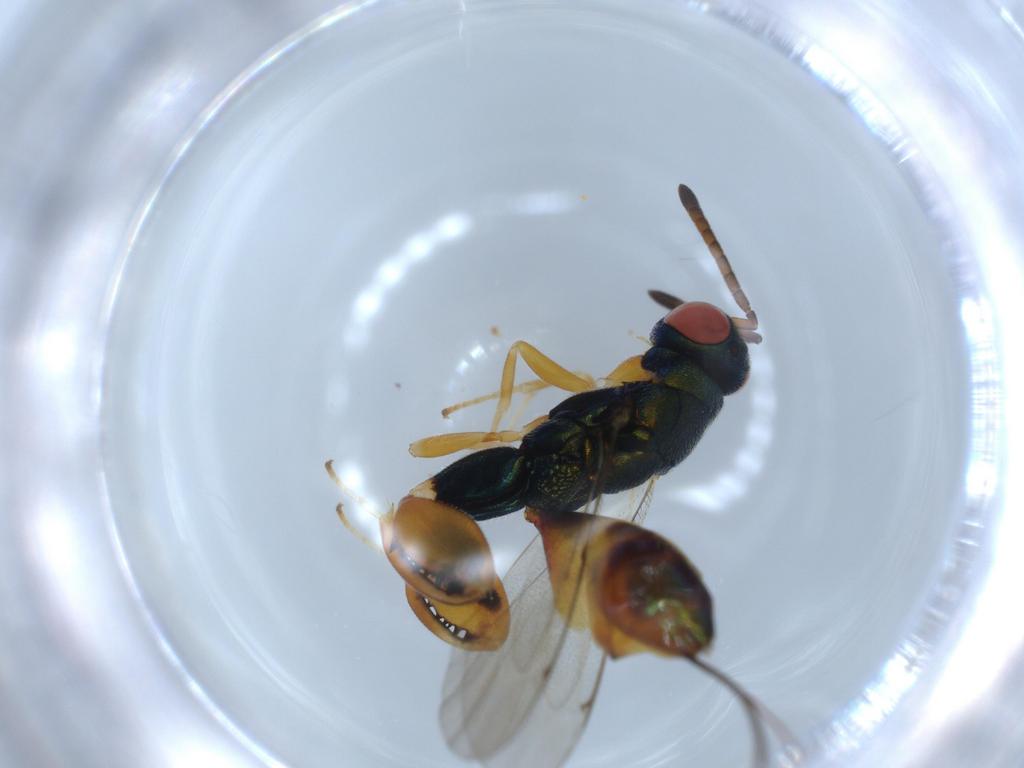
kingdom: Animalia
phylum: Arthropoda
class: Insecta
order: Hymenoptera
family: Torymidae
